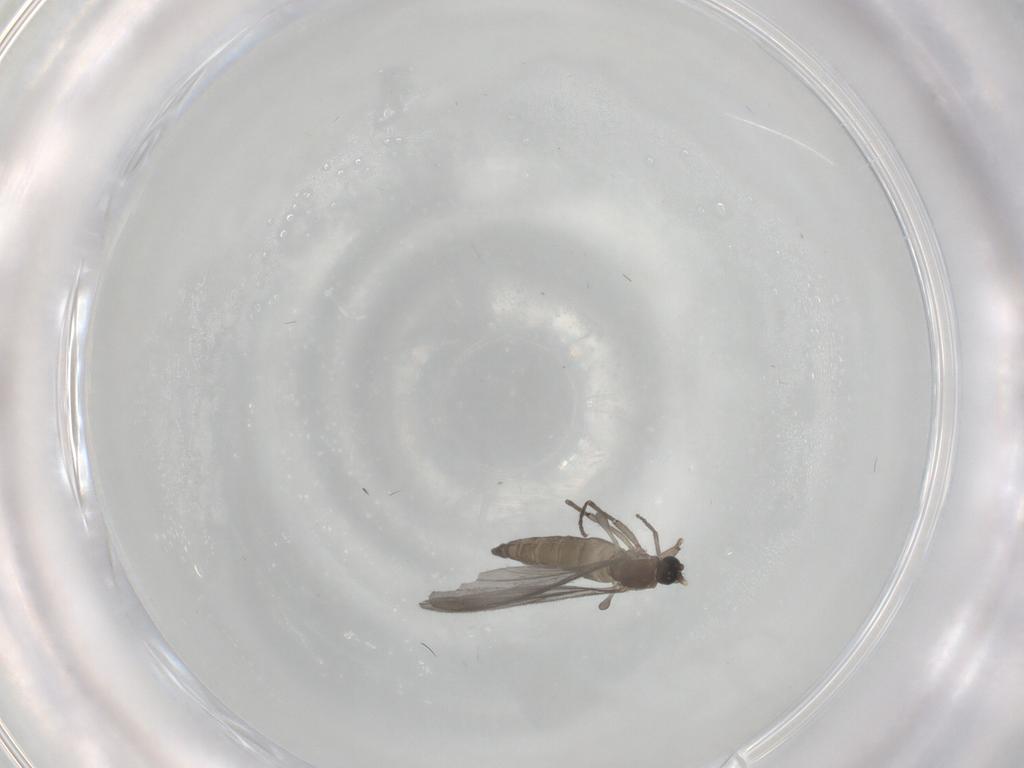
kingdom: Animalia
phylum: Arthropoda
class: Insecta
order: Diptera
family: Sciaridae
